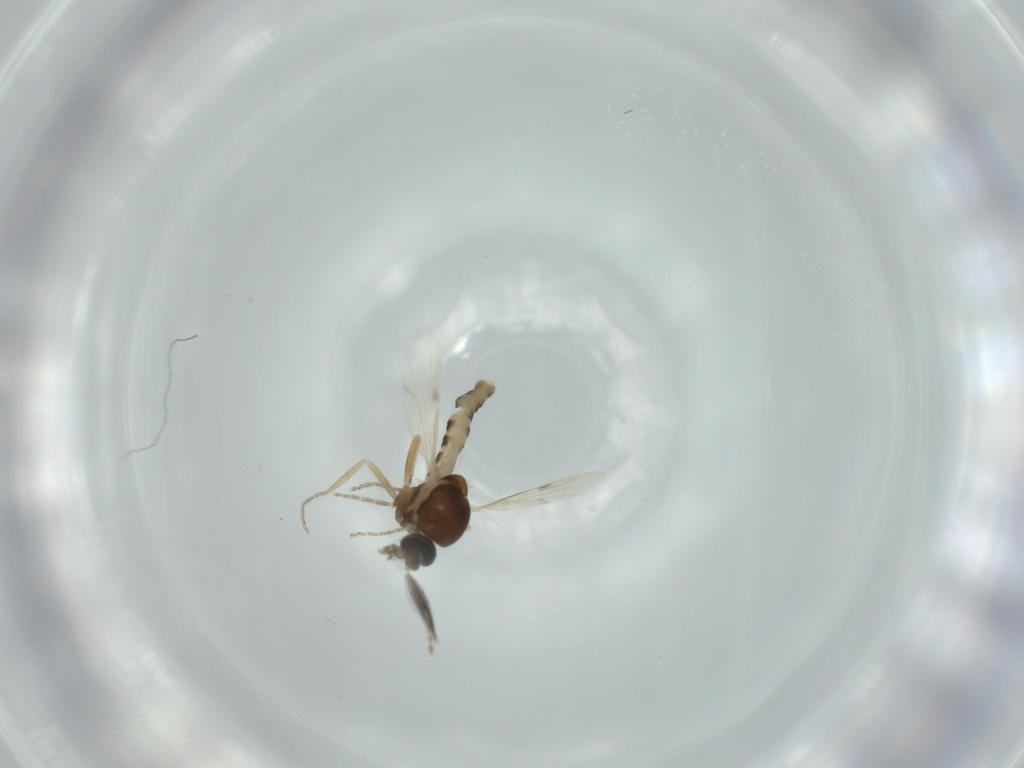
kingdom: Animalia
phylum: Arthropoda
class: Insecta
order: Diptera
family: Ceratopogonidae
